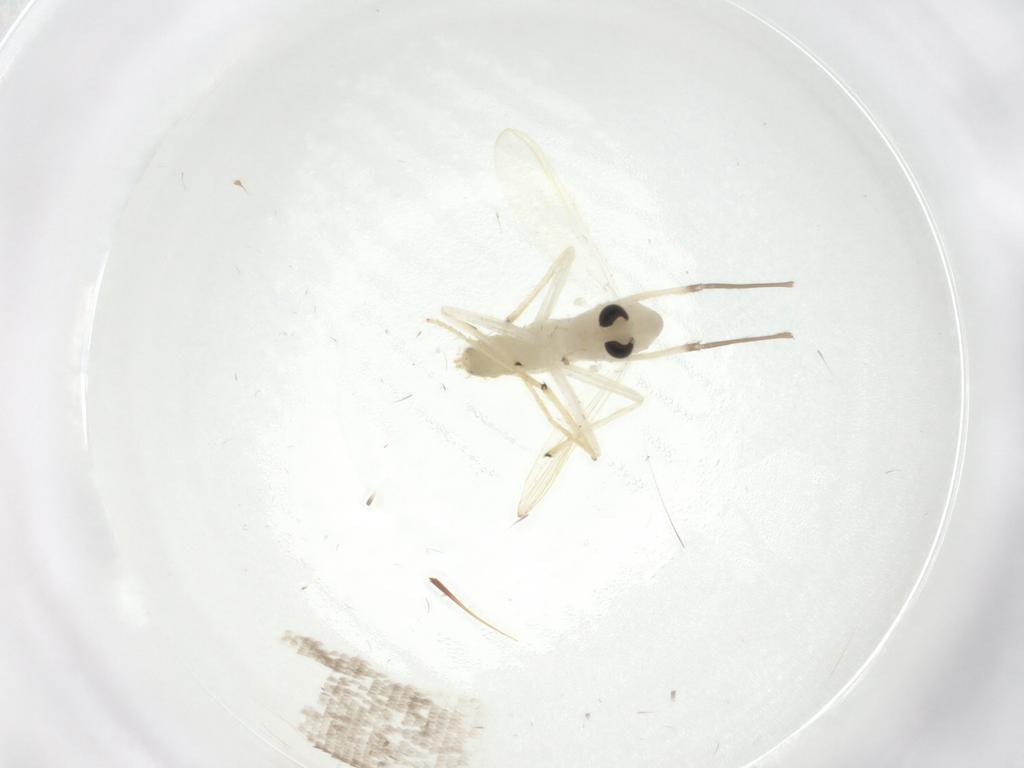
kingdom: Animalia
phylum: Arthropoda
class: Insecta
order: Diptera
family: Chironomidae
